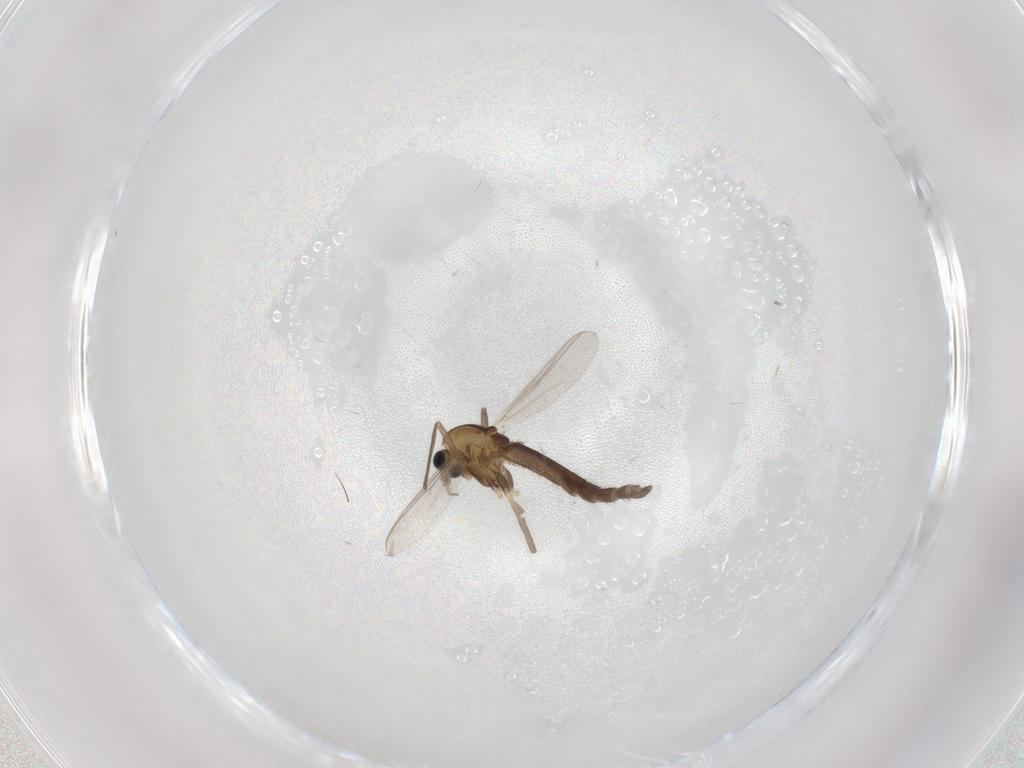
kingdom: Animalia
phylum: Arthropoda
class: Insecta
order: Diptera
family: Chironomidae
